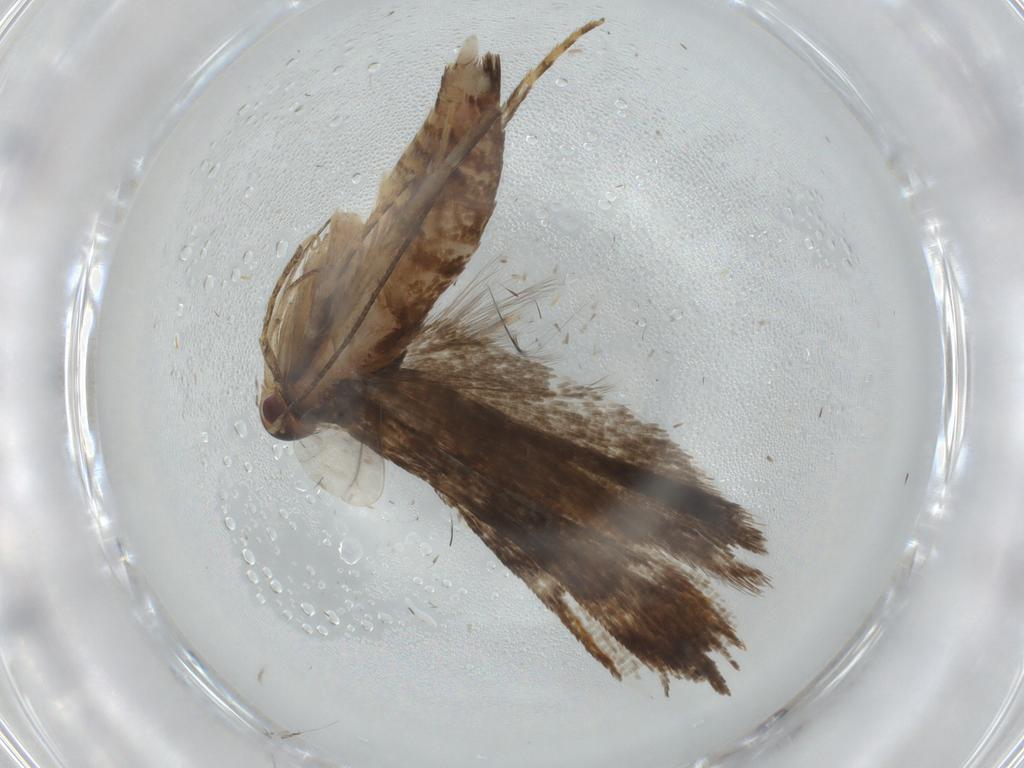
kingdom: Animalia
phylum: Arthropoda
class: Insecta
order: Lepidoptera
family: Gelechiidae
